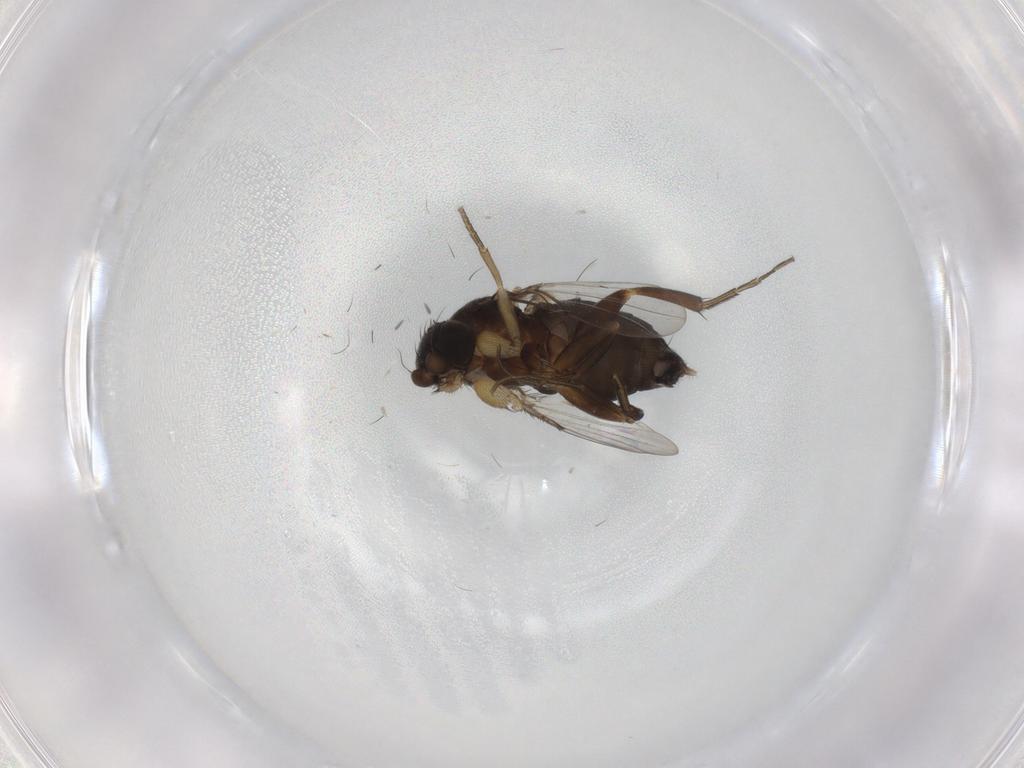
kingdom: Animalia
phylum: Arthropoda
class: Insecta
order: Diptera
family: Phoridae
